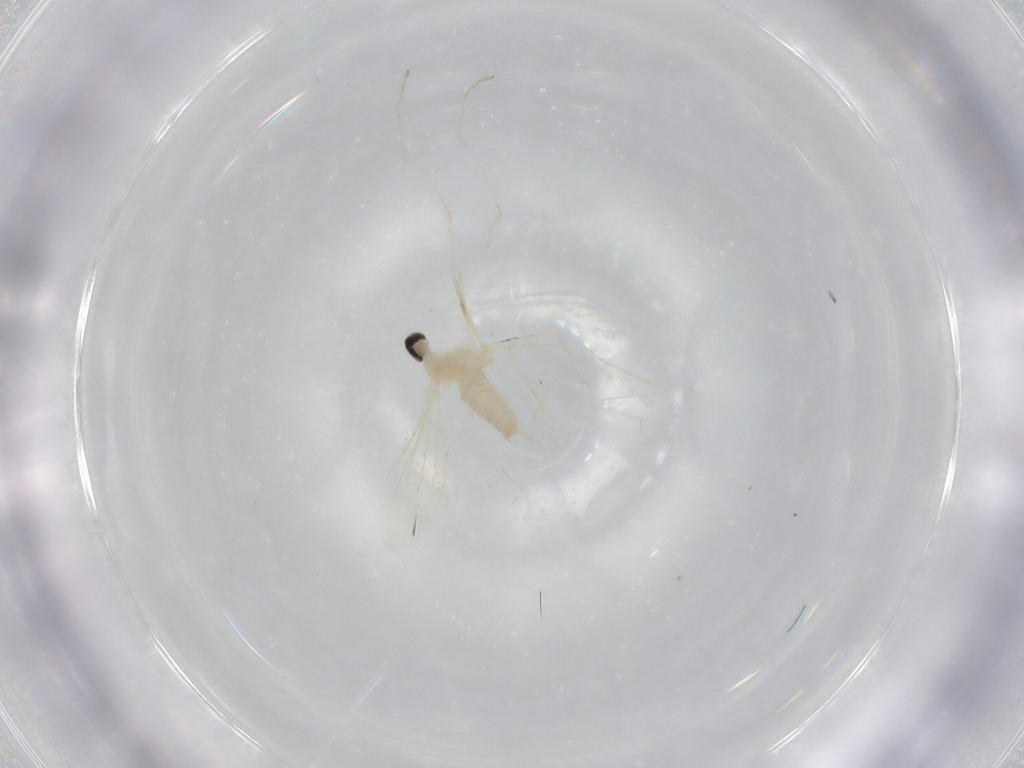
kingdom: Animalia
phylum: Arthropoda
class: Insecta
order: Diptera
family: Cecidomyiidae
